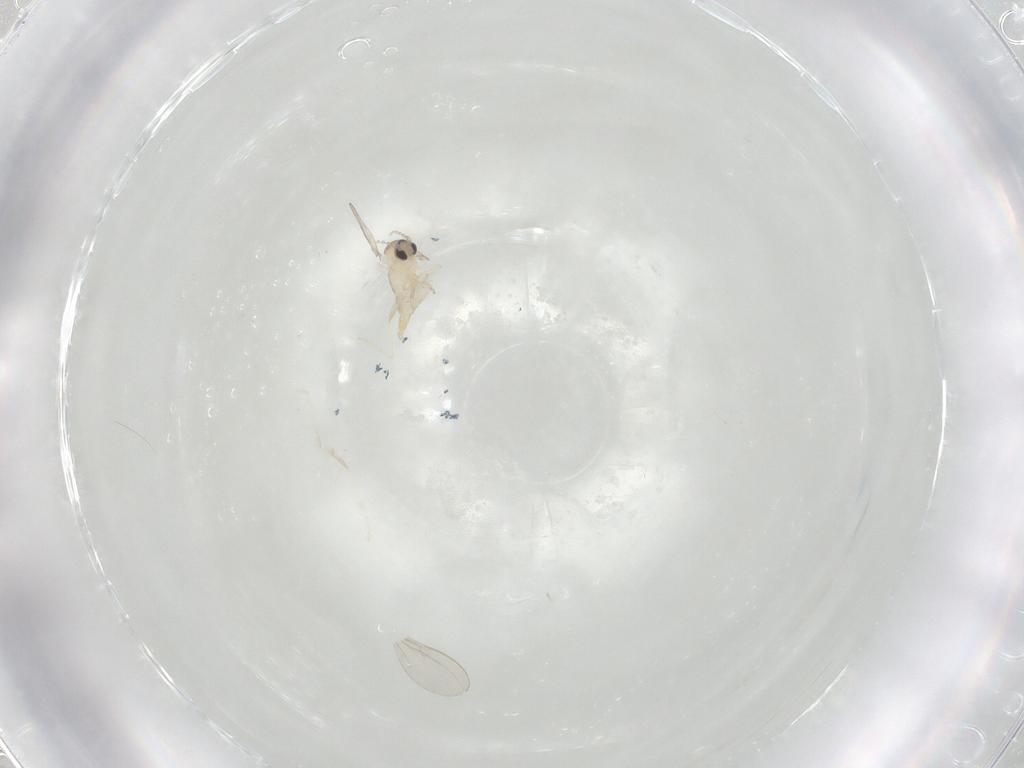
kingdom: Animalia
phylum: Arthropoda
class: Insecta
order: Diptera
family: Cecidomyiidae
